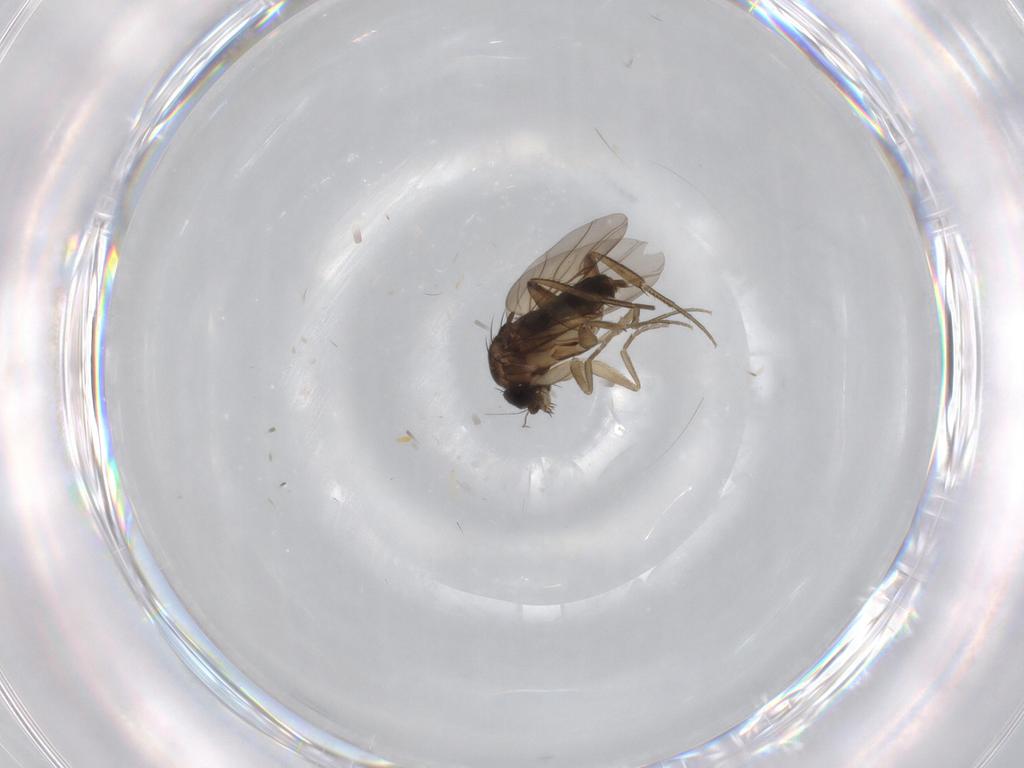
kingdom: Animalia
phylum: Arthropoda
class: Insecta
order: Diptera
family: Phoridae
